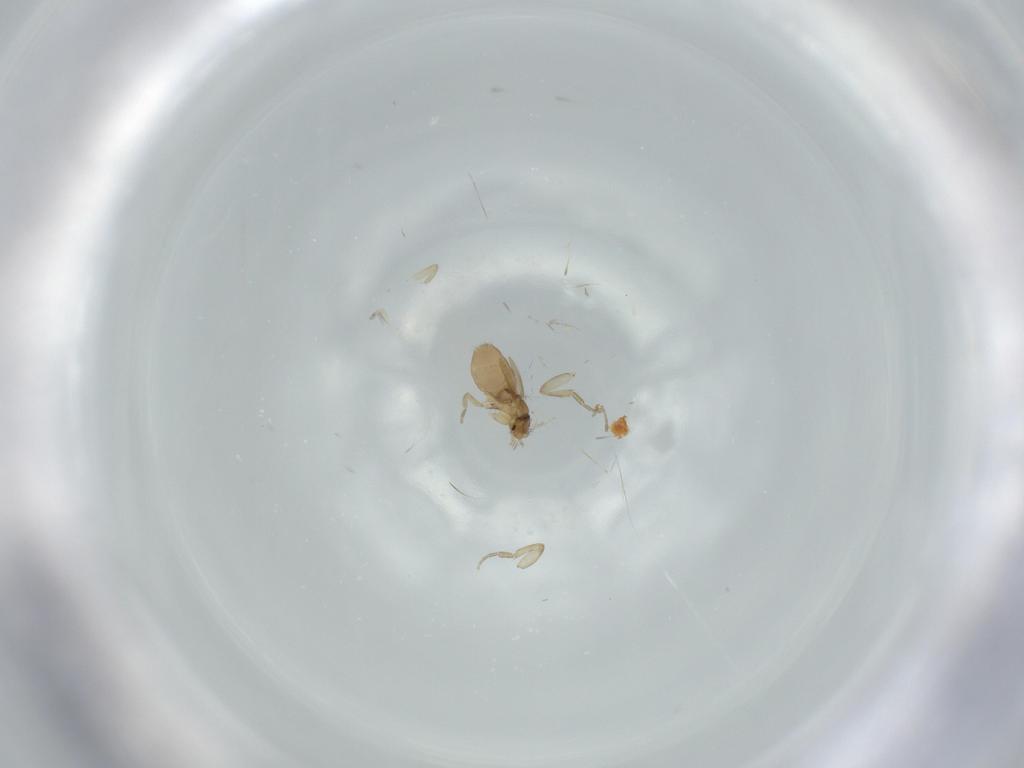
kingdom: Animalia
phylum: Arthropoda
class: Insecta
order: Diptera
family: Phoridae
